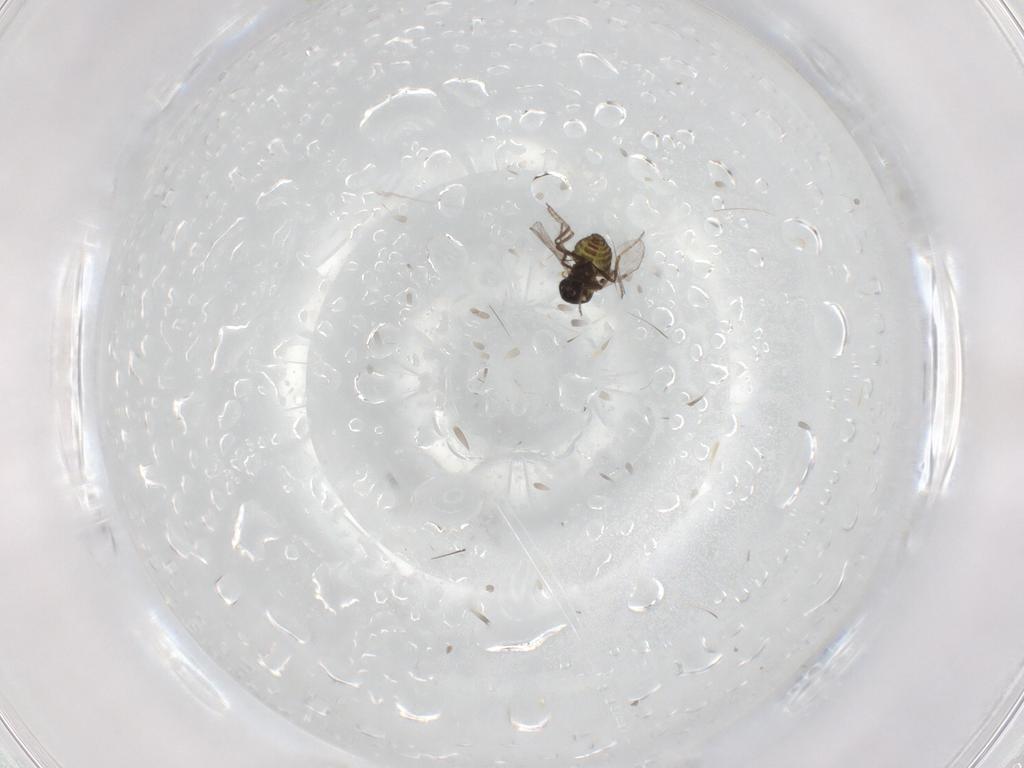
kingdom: Animalia
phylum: Arthropoda
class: Insecta
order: Diptera
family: Ceratopogonidae
